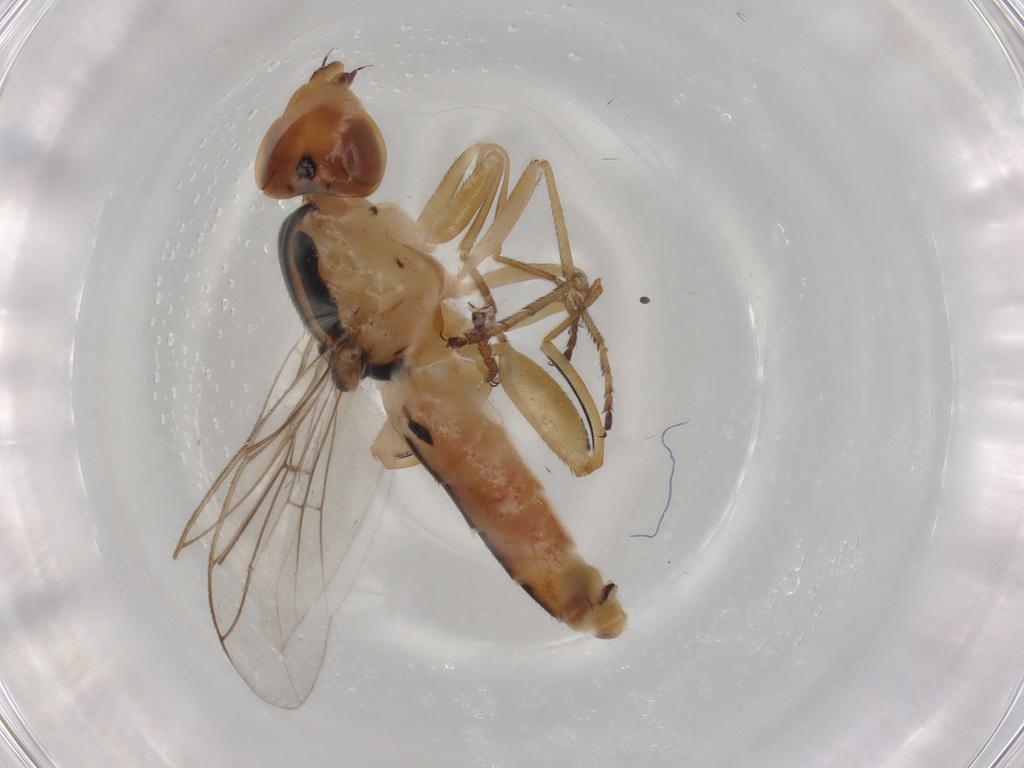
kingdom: Animalia
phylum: Arthropoda
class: Insecta
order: Diptera
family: Chloropidae
